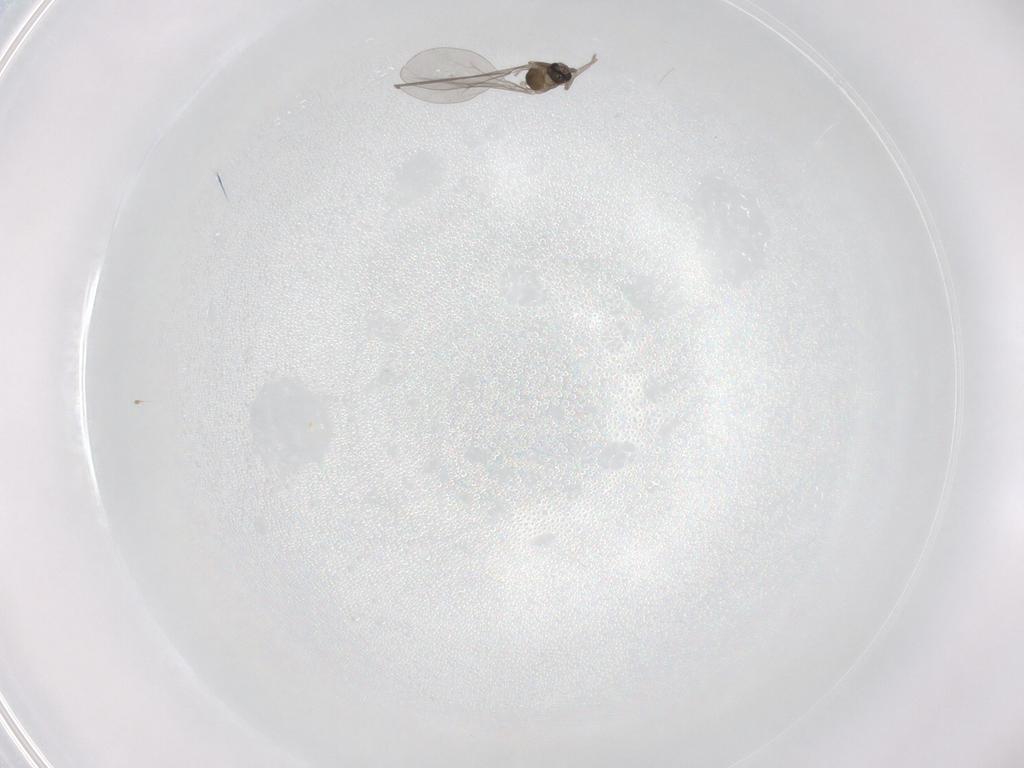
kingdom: Animalia
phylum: Arthropoda
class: Insecta
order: Diptera
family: Cecidomyiidae
